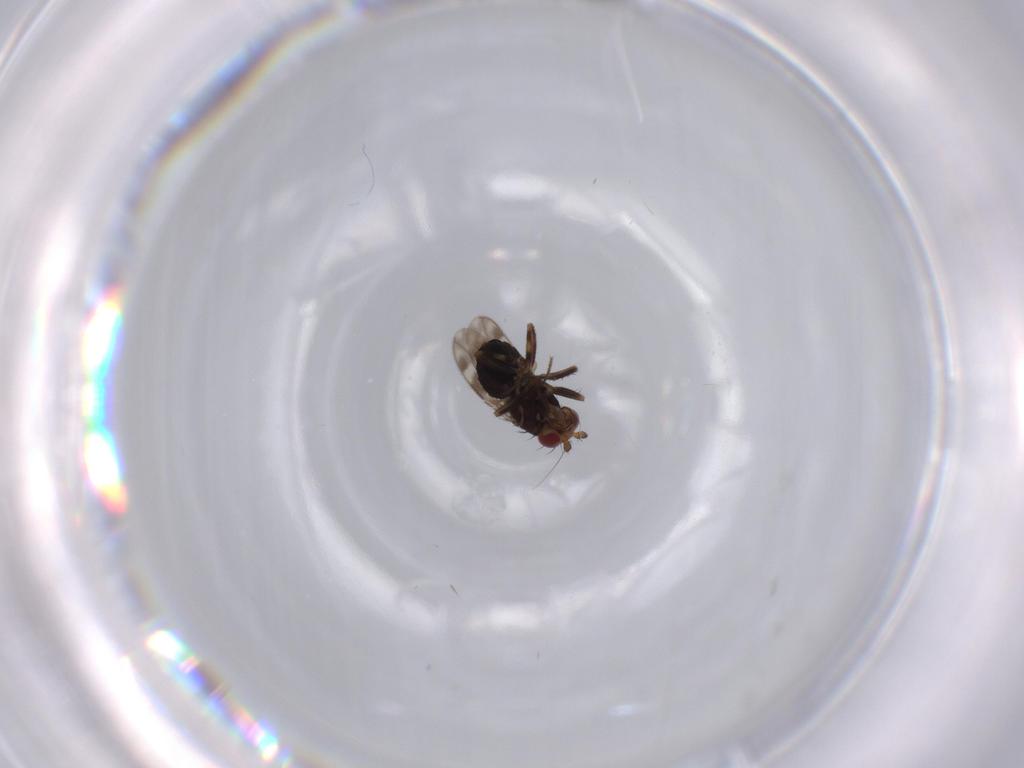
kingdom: Animalia
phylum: Arthropoda
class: Insecta
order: Diptera
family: Sphaeroceridae
